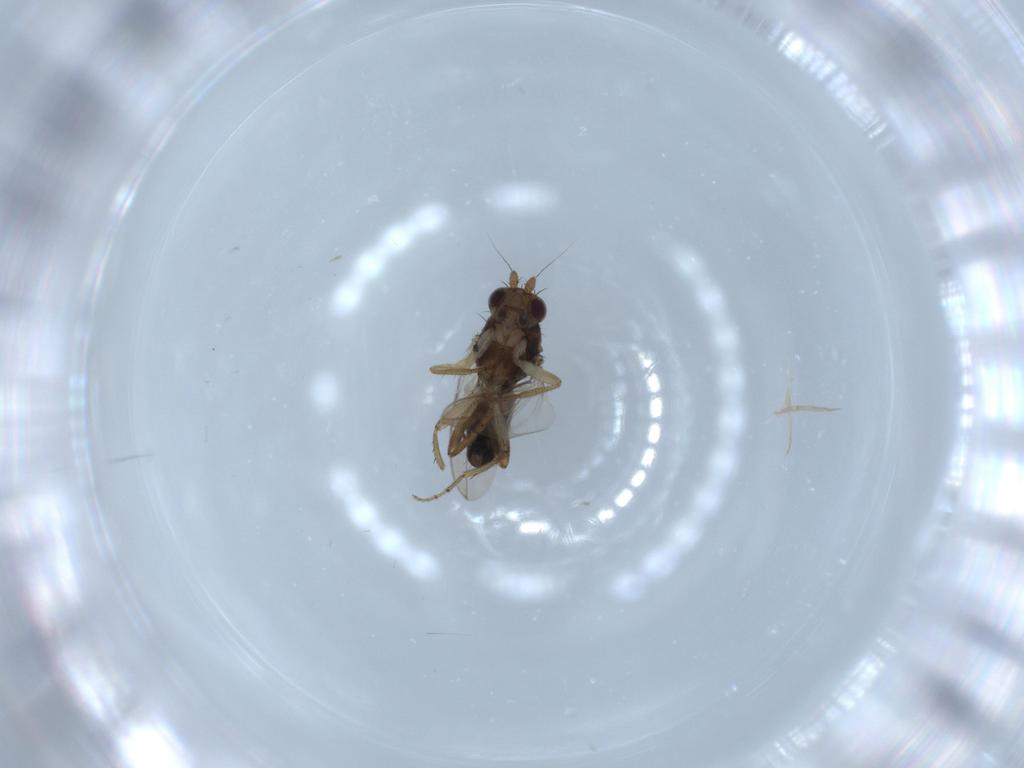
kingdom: Animalia
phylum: Arthropoda
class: Insecta
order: Diptera
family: Sphaeroceridae
